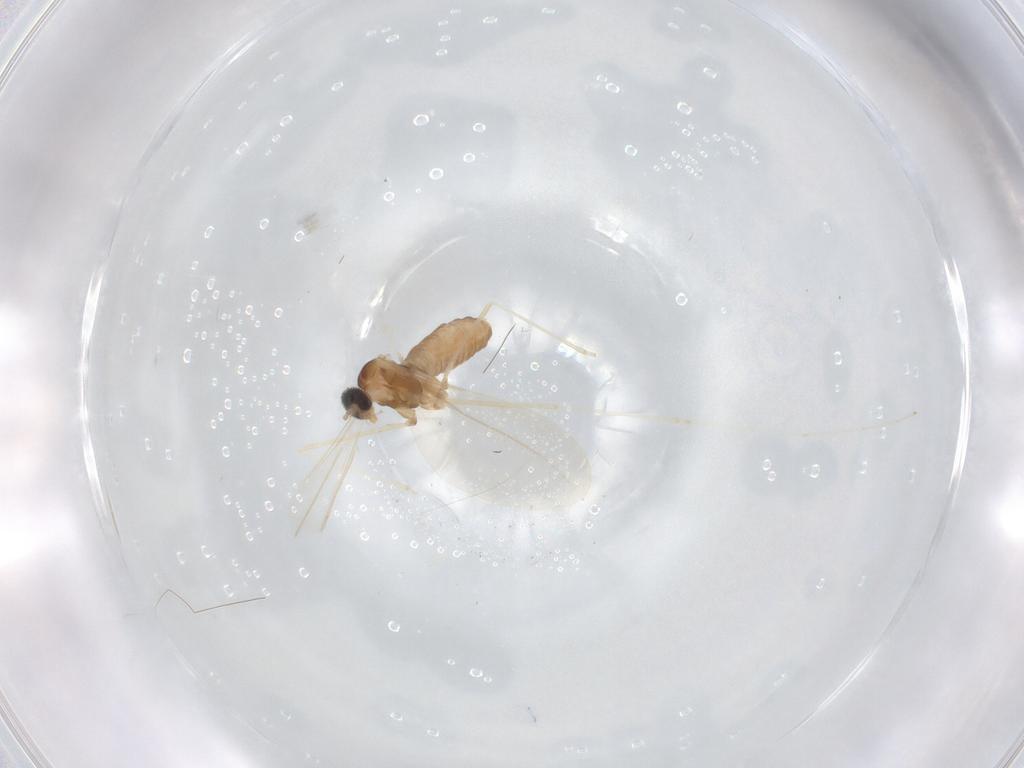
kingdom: Animalia
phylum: Arthropoda
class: Insecta
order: Diptera
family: Cecidomyiidae
